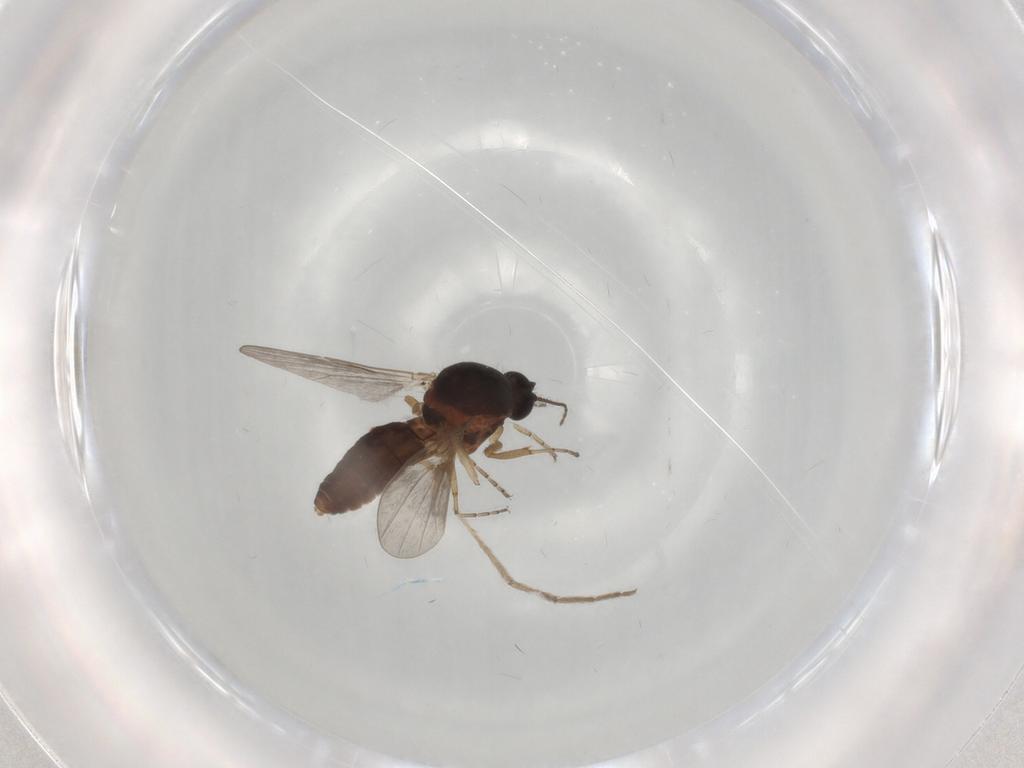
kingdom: Animalia
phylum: Arthropoda
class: Insecta
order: Diptera
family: Ceratopogonidae
